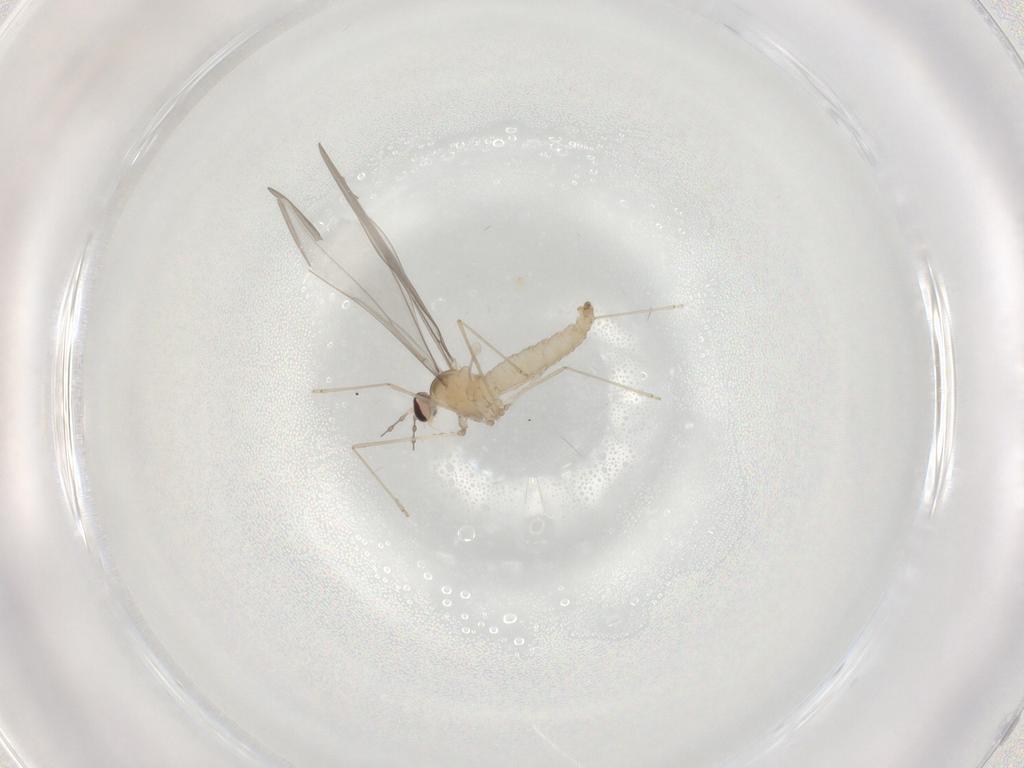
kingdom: Animalia
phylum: Arthropoda
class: Insecta
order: Diptera
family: Cecidomyiidae
